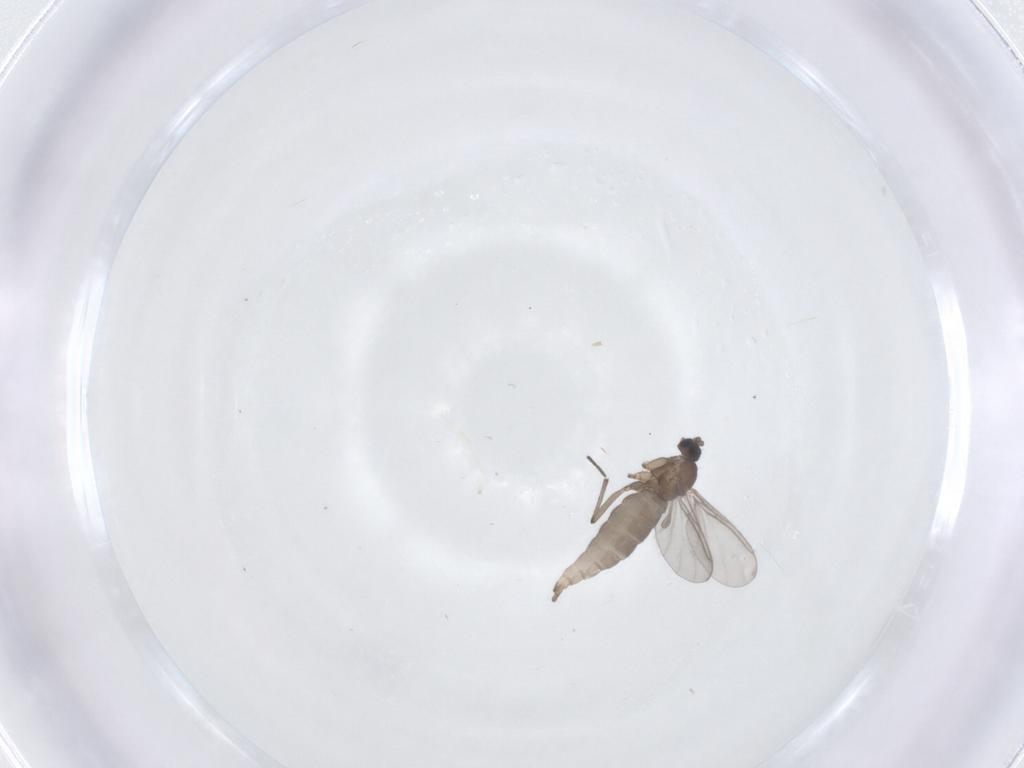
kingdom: Animalia
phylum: Arthropoda
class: Insecta
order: Diptera
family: Sciaridae
